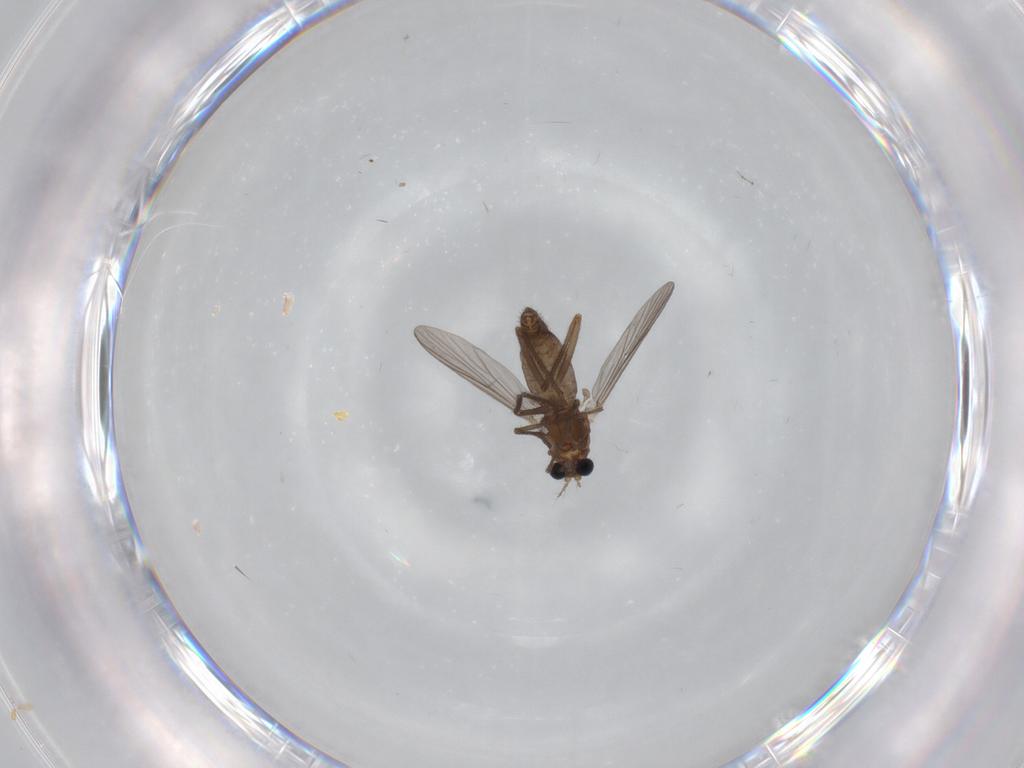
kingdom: Animalia
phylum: Arthropoda
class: Insecta
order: Diptera
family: Chironomidae
